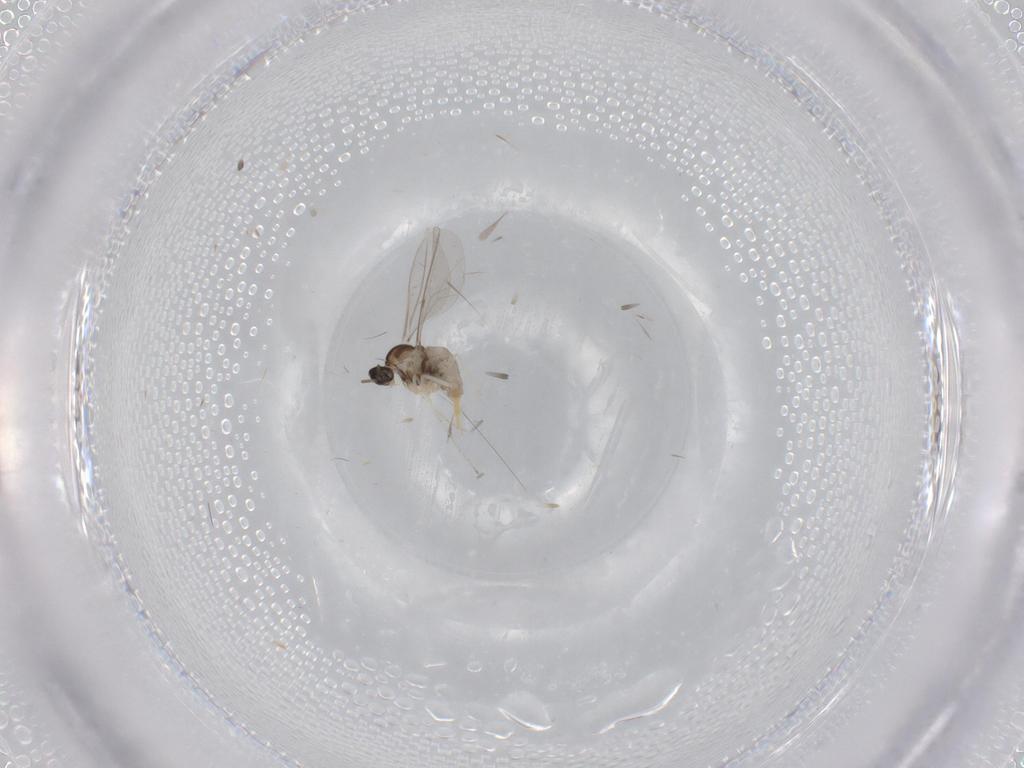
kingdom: Animalia
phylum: Arthropoda
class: Insecta
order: Diptera
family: Cecidomyiidae
